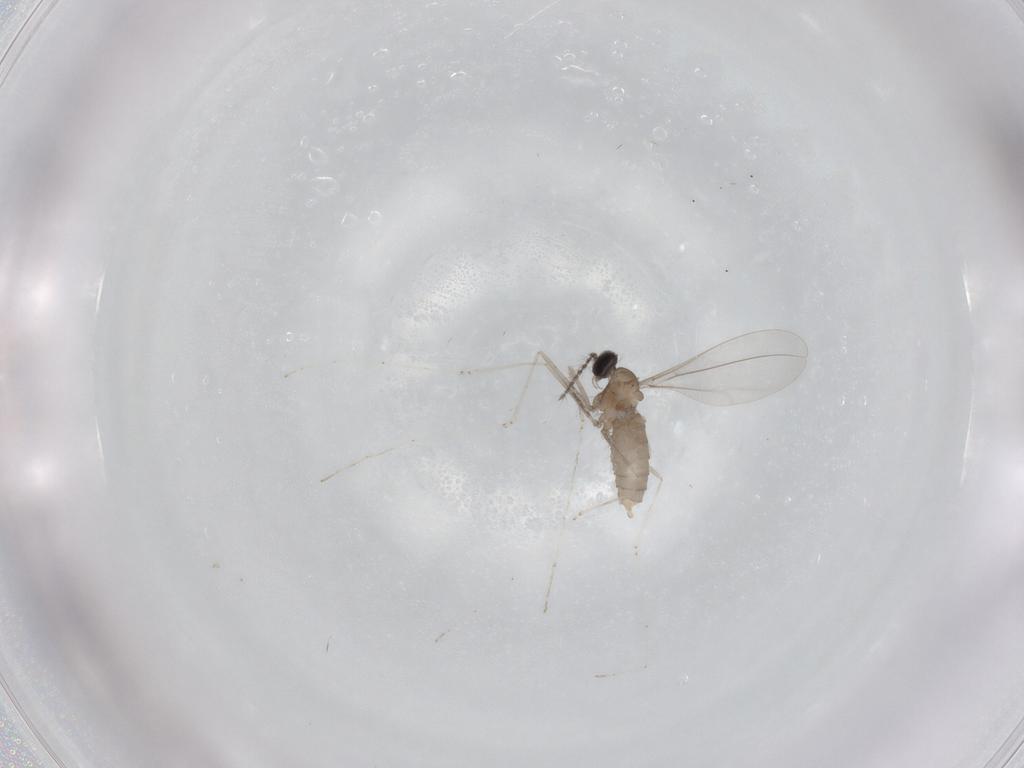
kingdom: Animalia
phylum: Arthropoda
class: Insecta
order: Diptera
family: Cecidomyiidae
